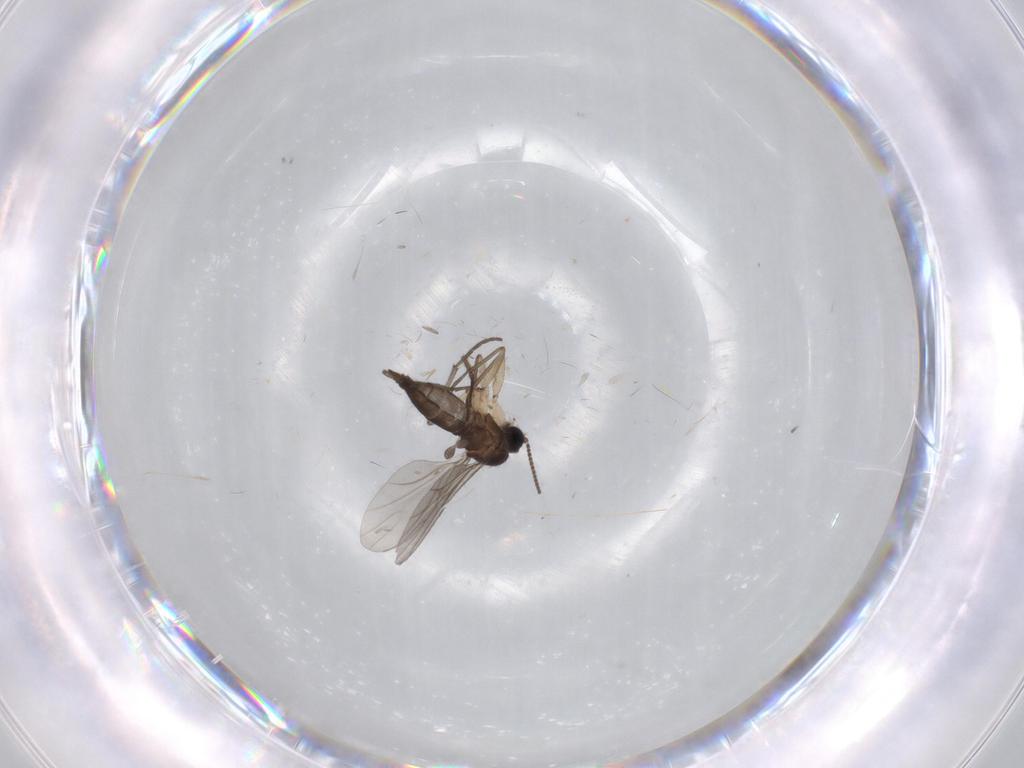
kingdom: Animalia
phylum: Arthropoda
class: Insecta
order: Diptera
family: Sciaridae
